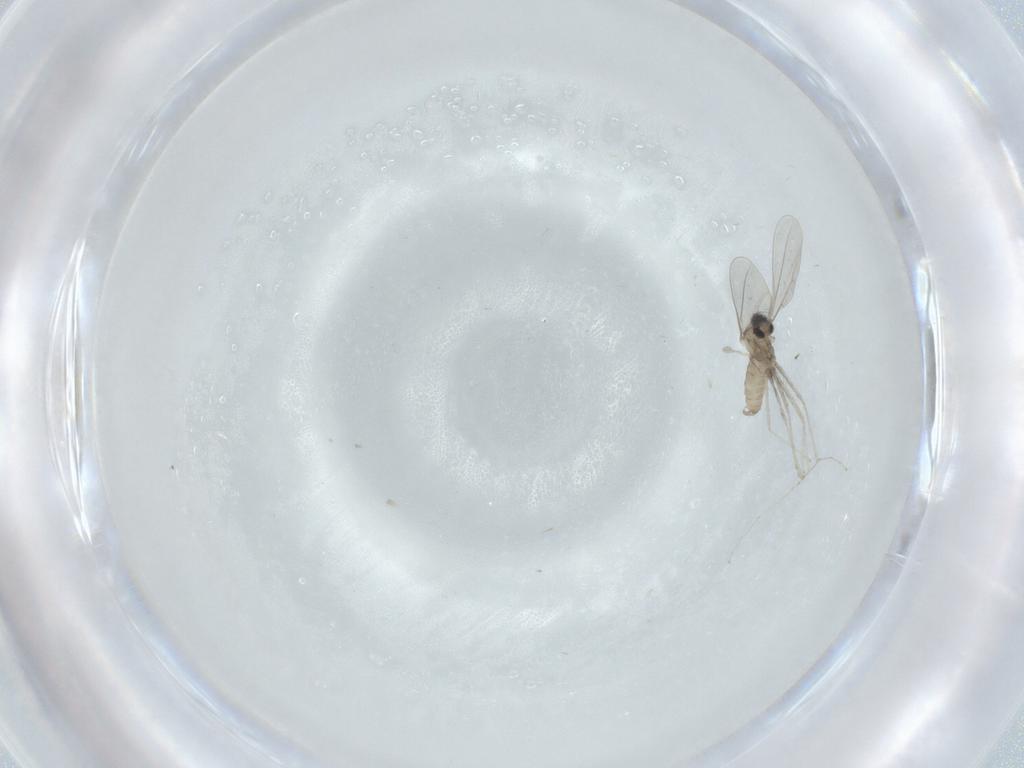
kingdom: Animalia
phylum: Arthropoda
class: Insecta
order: Diptera
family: Cecidomyiidae
